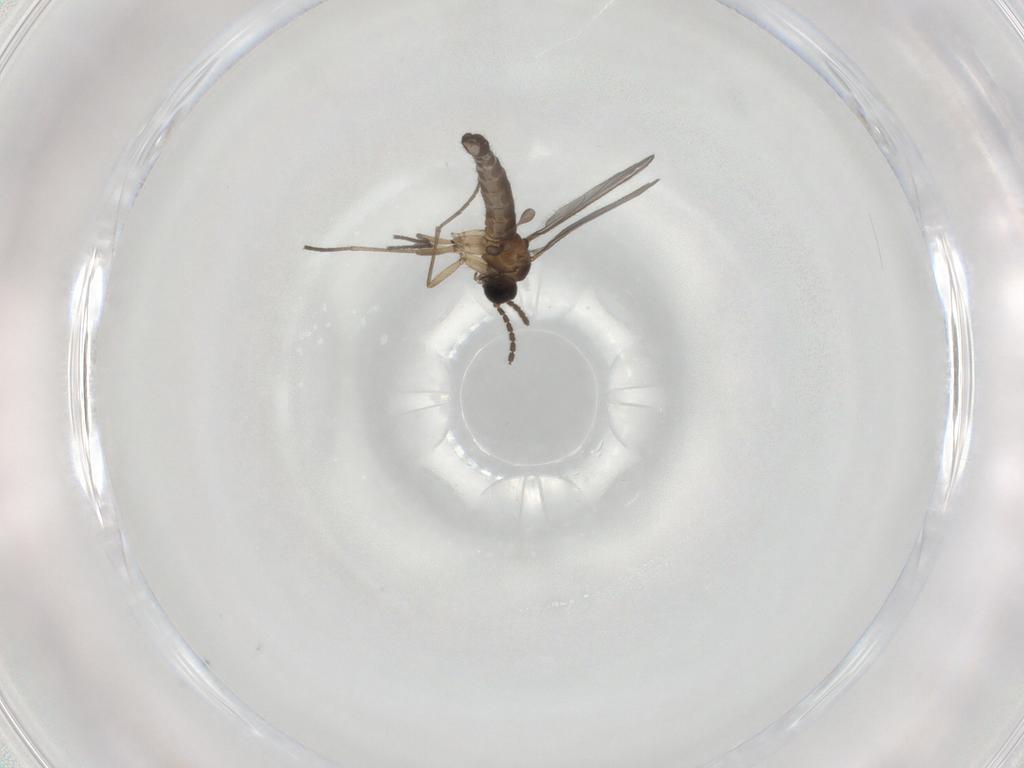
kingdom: Animalia
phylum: Arthropoda
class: Insecta
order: Diptera
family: Sciaridae
